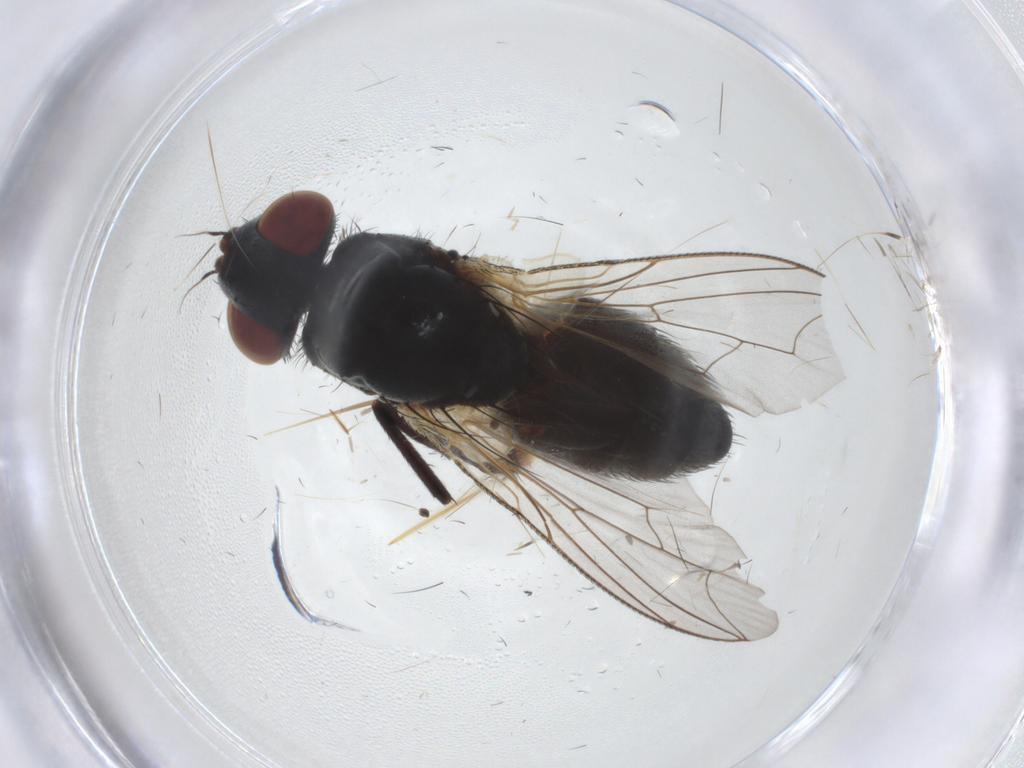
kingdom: Animalia
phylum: Arthropoda
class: Insecta
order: Diptera
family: Sarcophagidae
